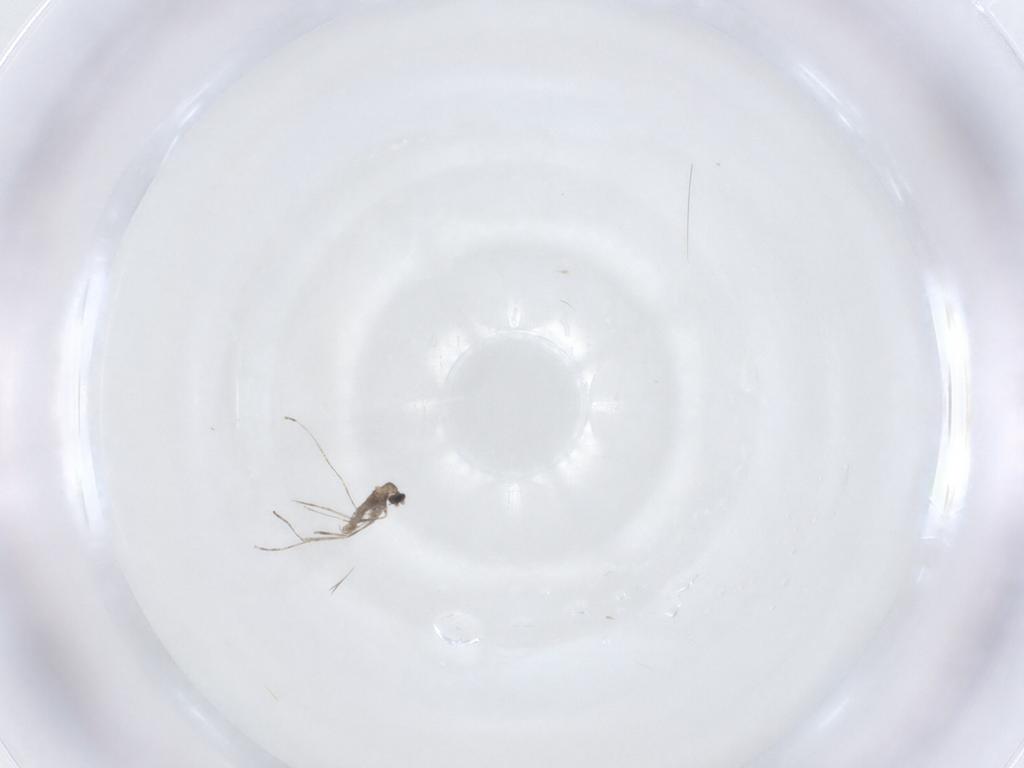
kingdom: Animalia
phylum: Arthropoda
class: Insecta
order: Diptera
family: Cecidomyiidae
